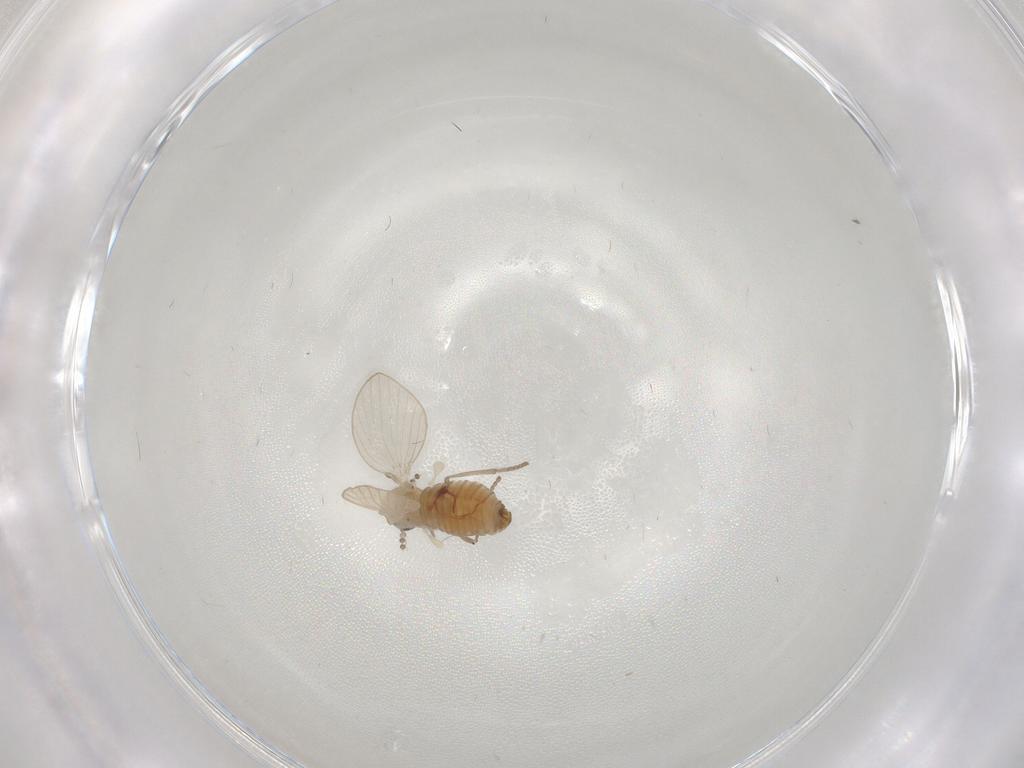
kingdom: Animalia
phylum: Arthropoda
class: Insecta
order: Diptera
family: Psychodidae
